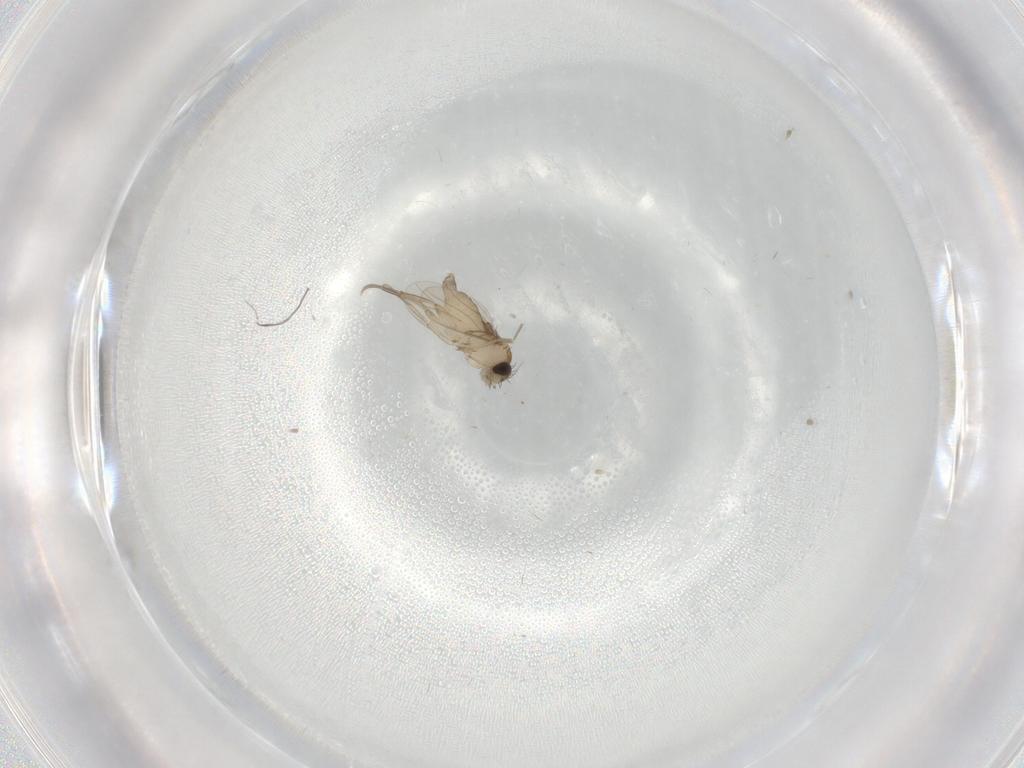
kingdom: Animalia
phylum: Arthropoda
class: Insecta
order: Diptera
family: Phoridae
